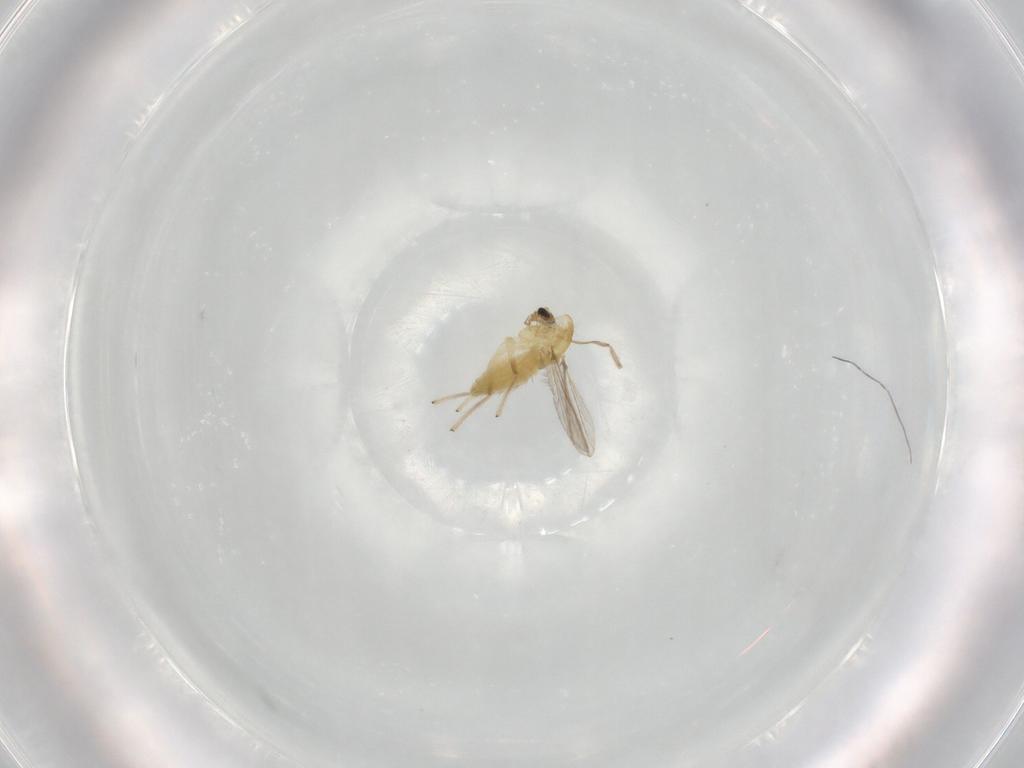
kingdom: Animalia
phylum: Arthropoda
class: Insecta
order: Diptera
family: Chironomidae
